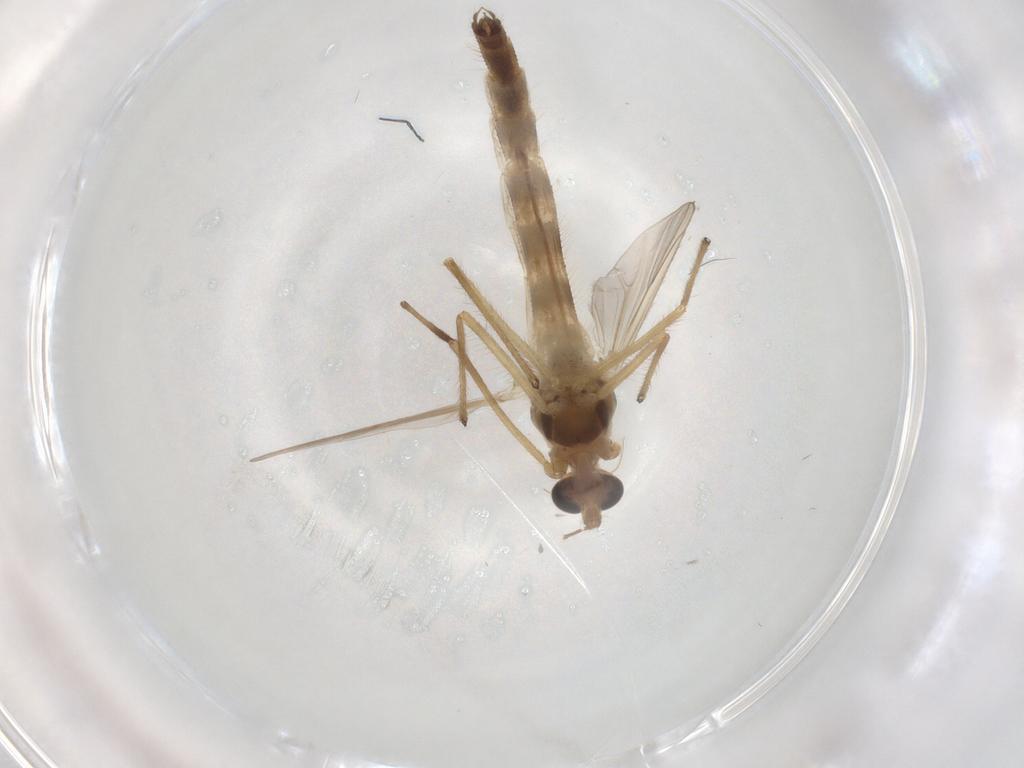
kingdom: Animalia
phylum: Arthropoda
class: Insecta
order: Diptera
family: Chironomidae
